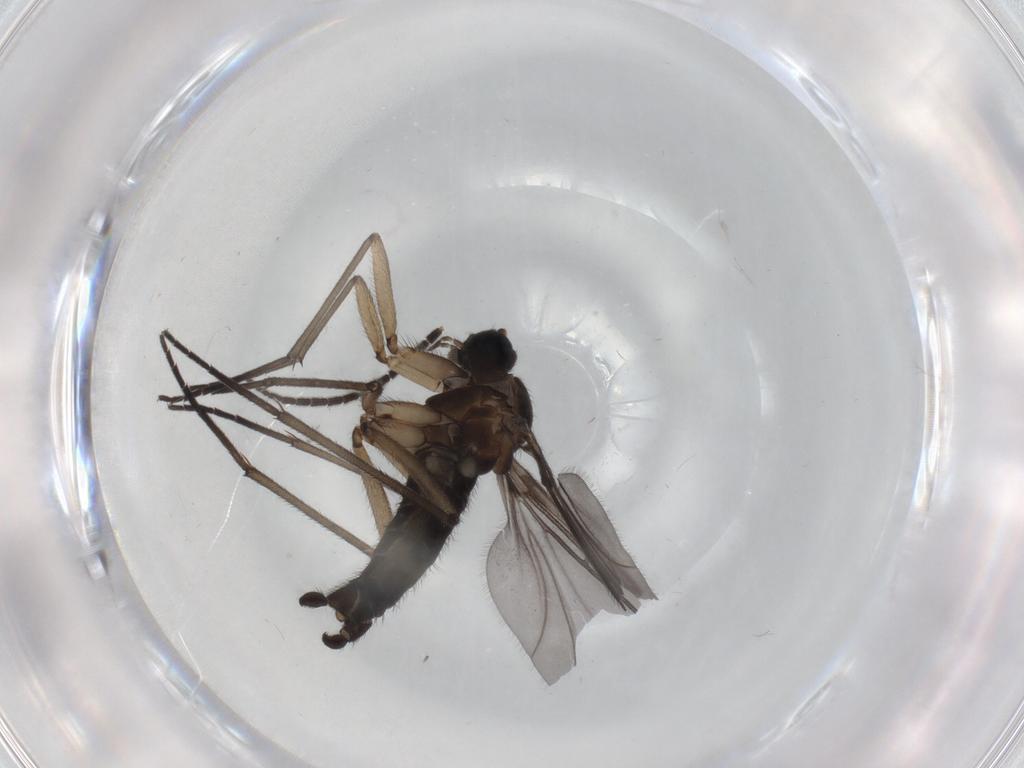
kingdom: Animalia
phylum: Arthropoda
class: Insecta
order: Diptera
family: Sciaridae
